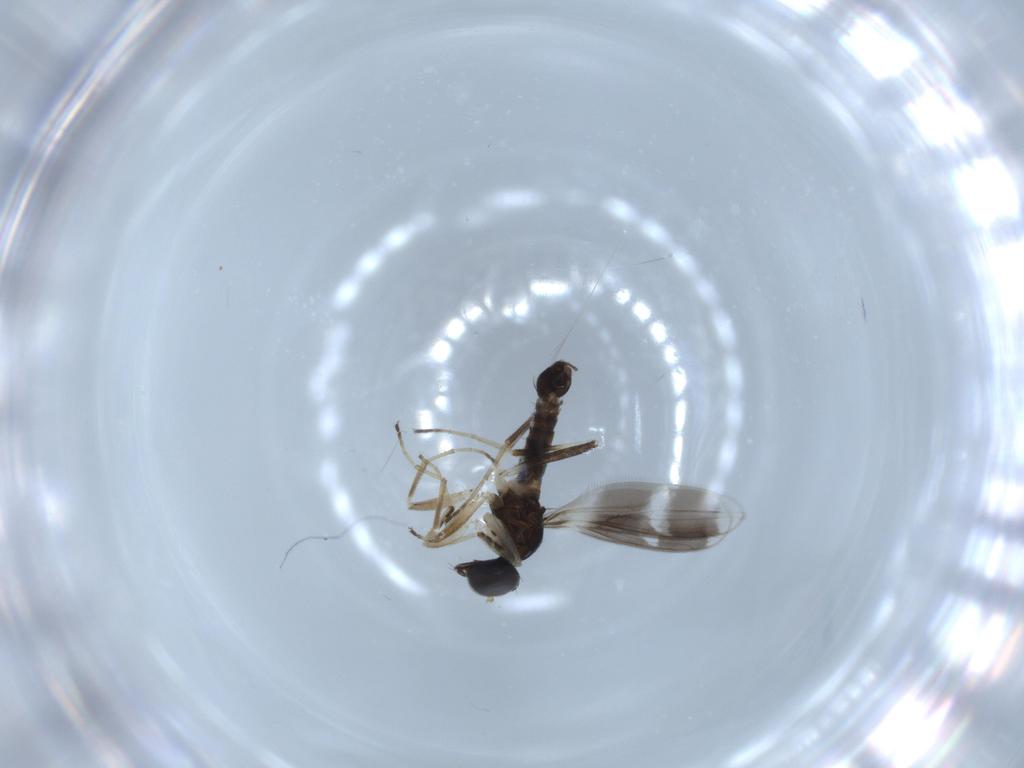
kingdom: Animalia
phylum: Arthropoda
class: Insecta
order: Diptera
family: Hybotidae
